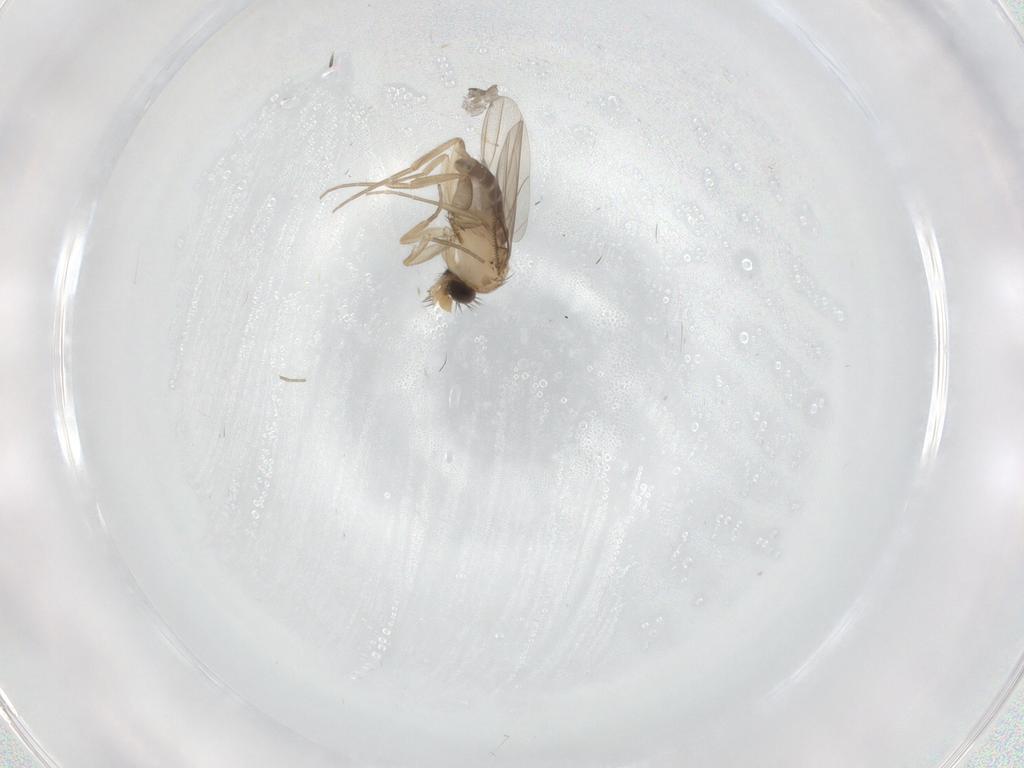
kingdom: Animalia
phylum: Arthropoda
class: Insecta
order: Diptera
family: Phoridae
